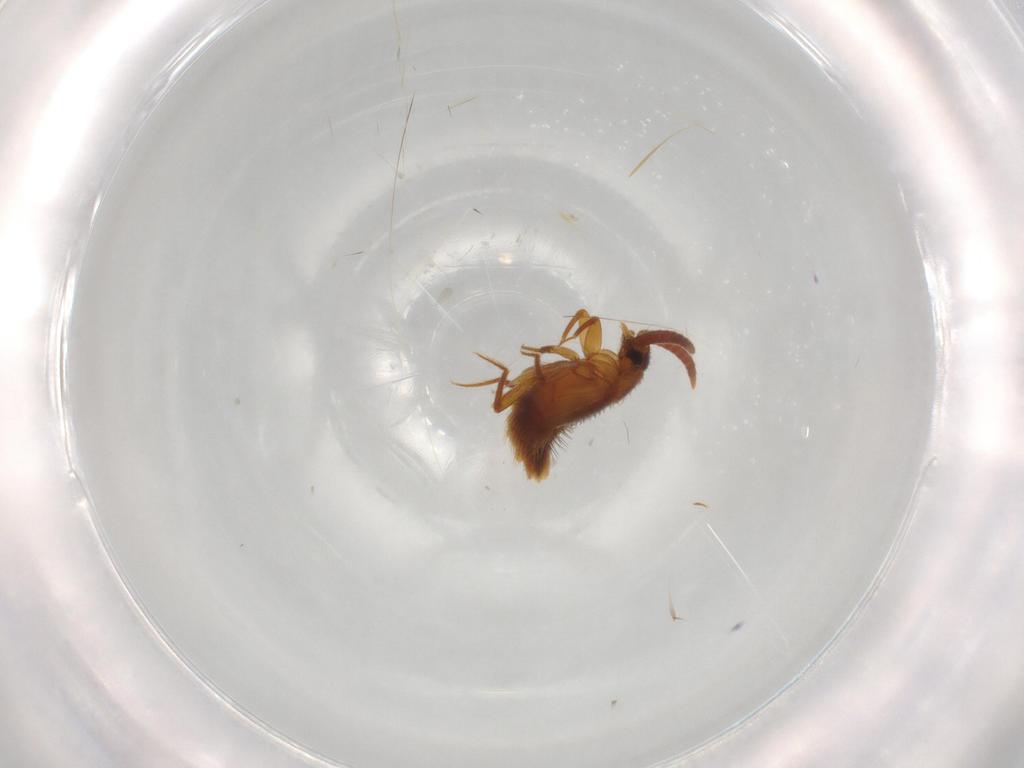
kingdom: Animalia
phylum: Arthropoda
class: Insecta
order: Coleoptera
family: Staphylinidae
